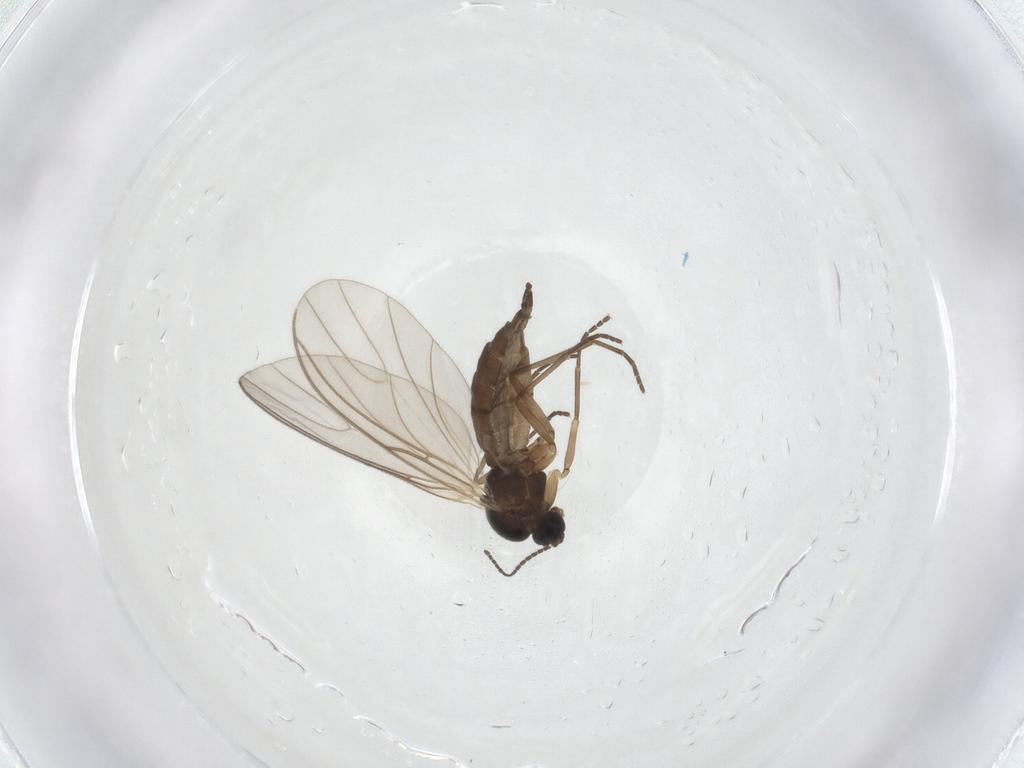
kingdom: Animalia
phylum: Arthropoda
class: Insecta
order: Diptera
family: Sciaridae
